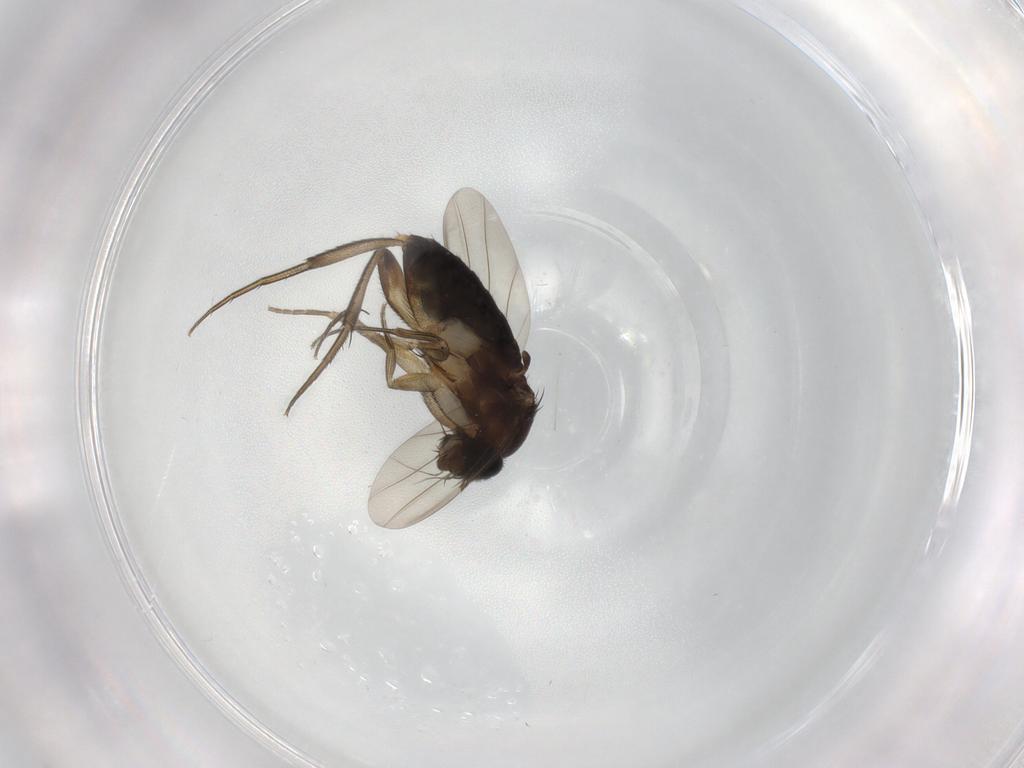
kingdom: Animalia
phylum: Arthropoda
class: Insecta
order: Diptera
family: Phoridae
